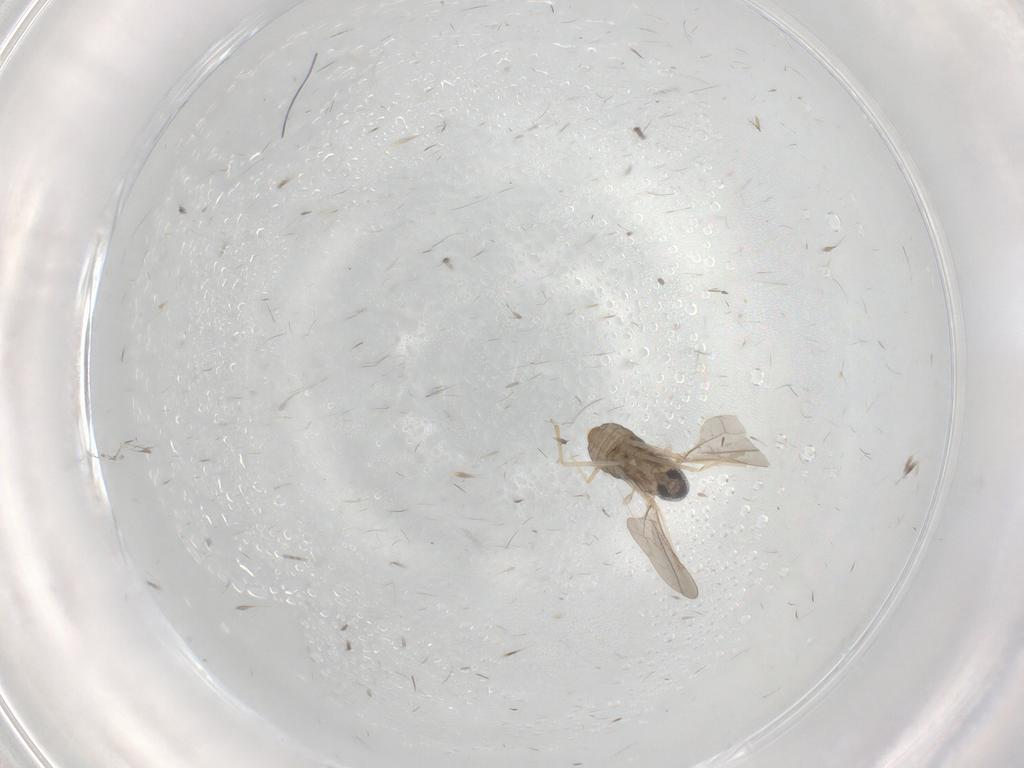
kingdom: Animalia
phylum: Arthropoda
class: Insecta
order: Diptera
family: Cecidomyiidae
